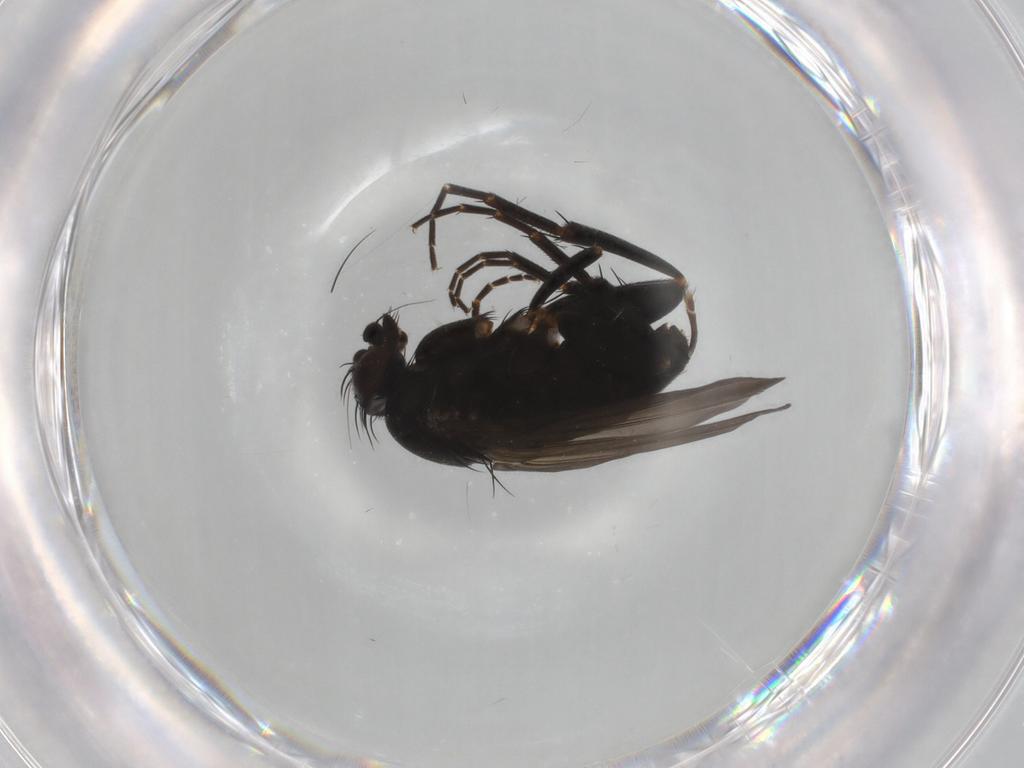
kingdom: Animalia
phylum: Arthropoda
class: Insecta
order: Diptera
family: Phoridae
